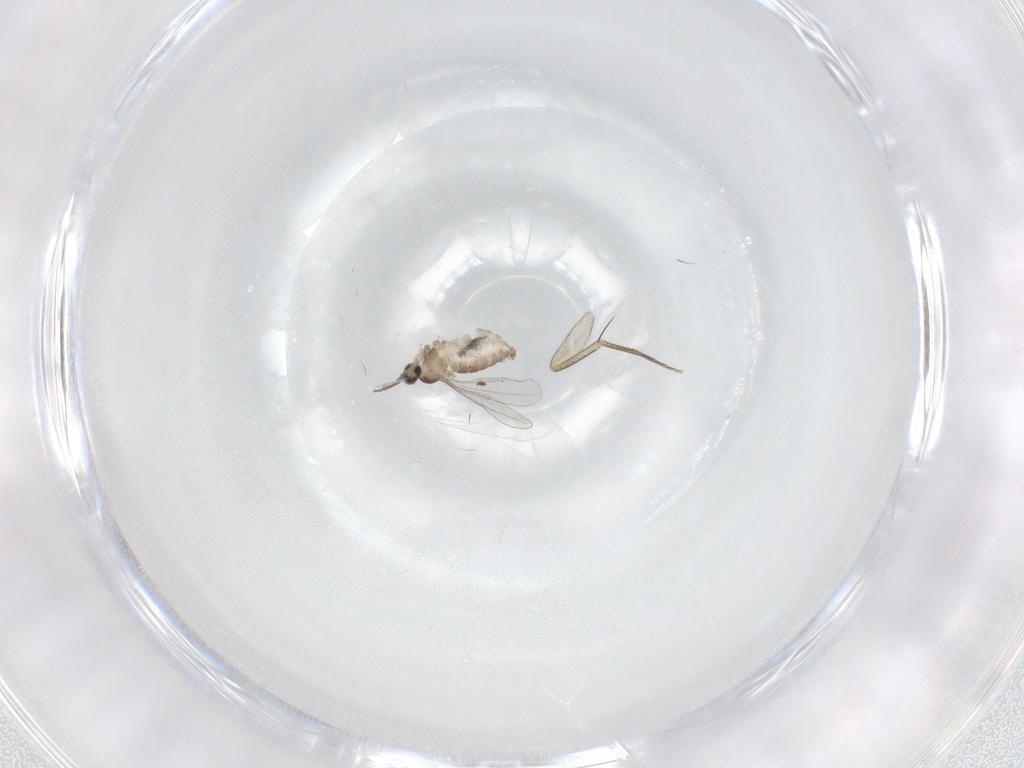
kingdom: Animalia
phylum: Arthropoda
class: Insecta
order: Diptera
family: Cecidomyiidae
